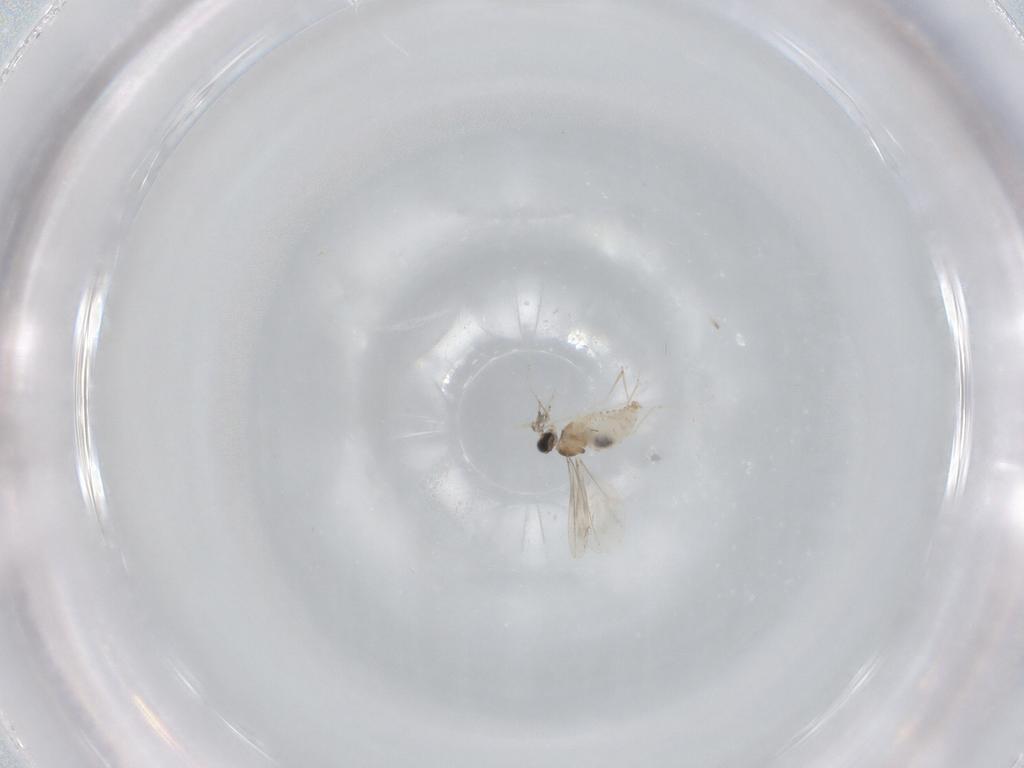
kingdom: Animalia
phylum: Arthropoda
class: Insecta
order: Diptera
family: Cecidomyiidae
